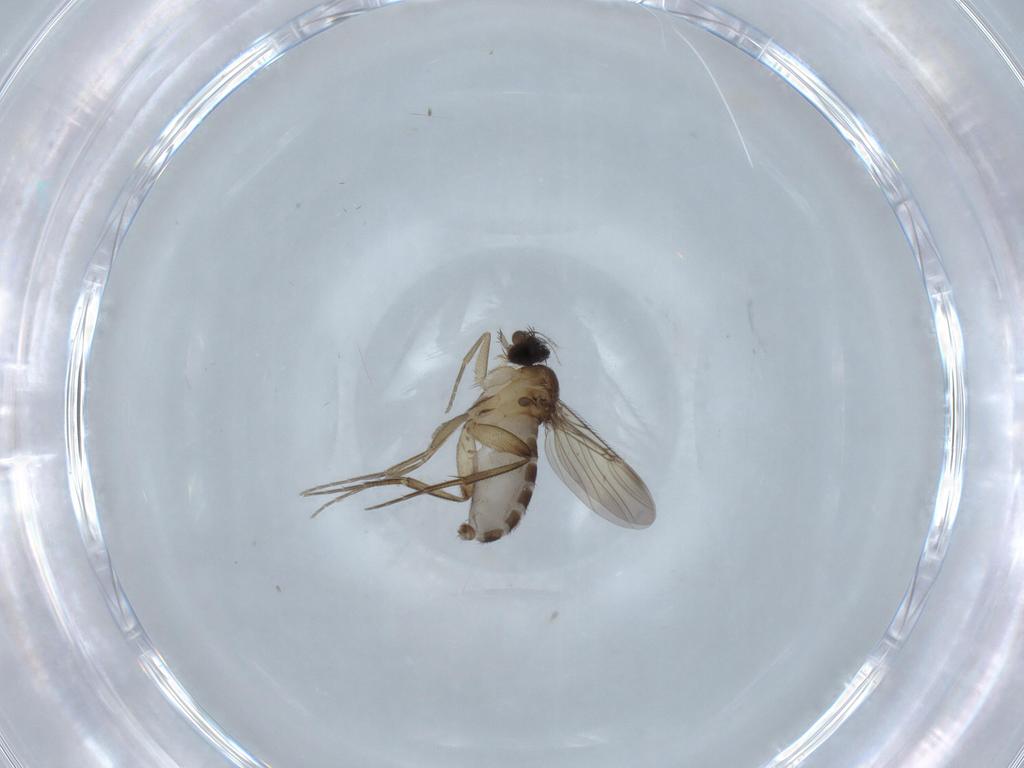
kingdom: Animalia
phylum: Arthropoda
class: Insecta
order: Diptera
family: Phoridae
